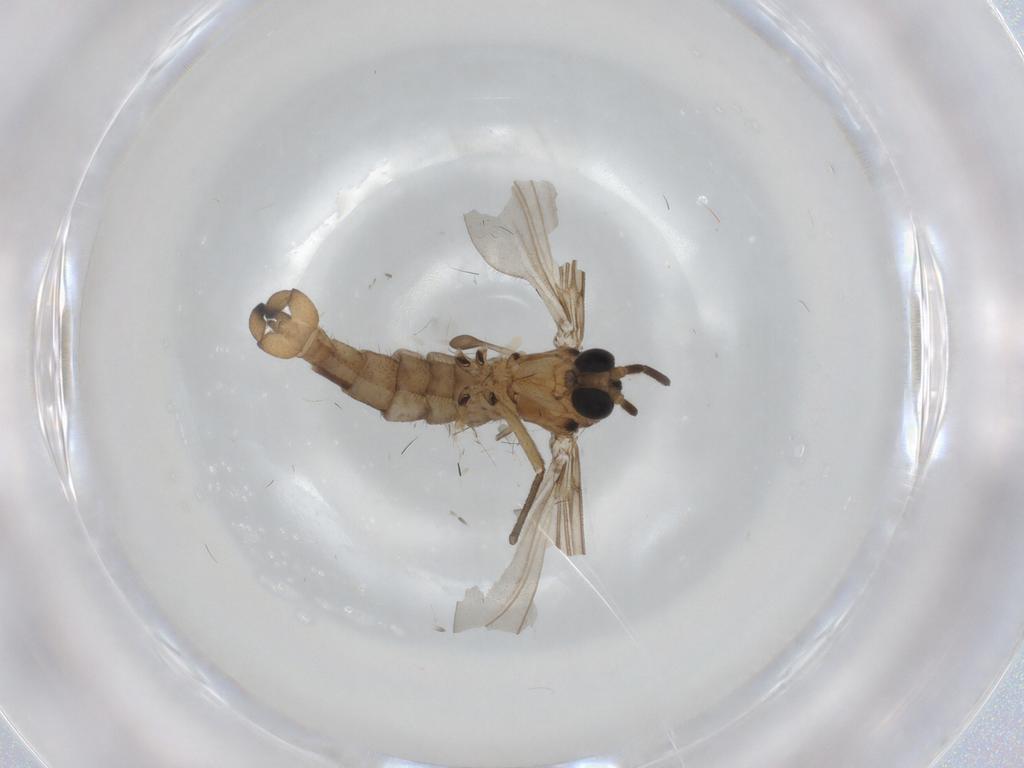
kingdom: Animalia
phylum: Arthropoda
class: Insecta
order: Diptera
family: Sciaridae
